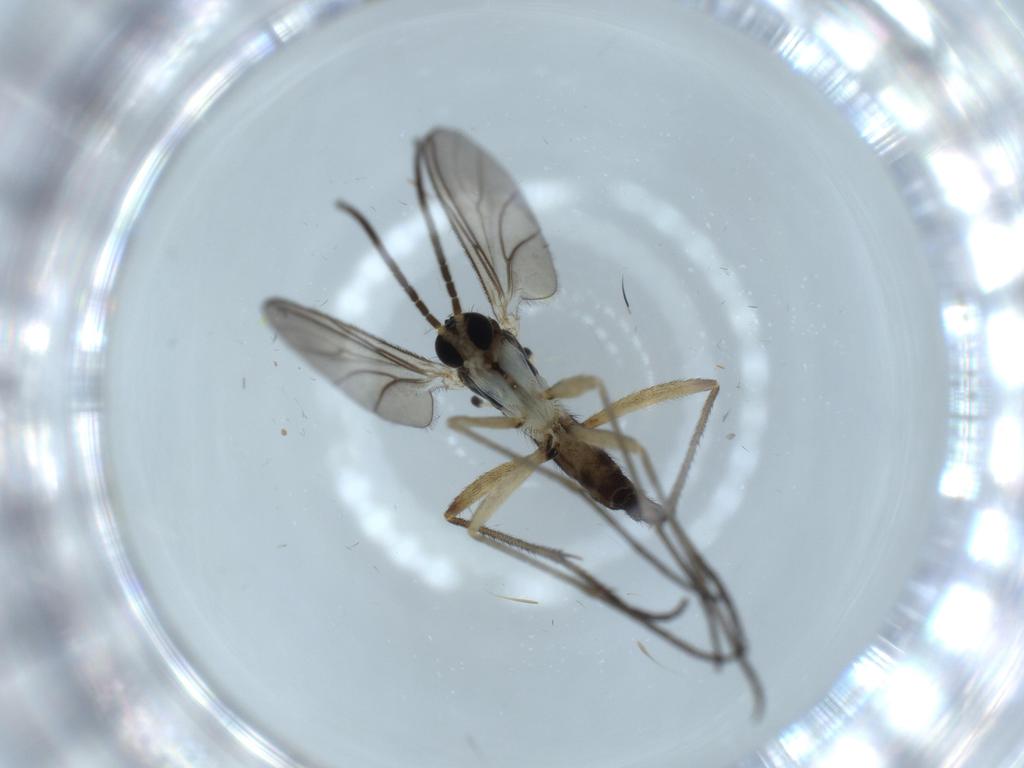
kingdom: Animalia
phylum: Arthropoda
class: Insecta
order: Diptera
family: Sciaridae
